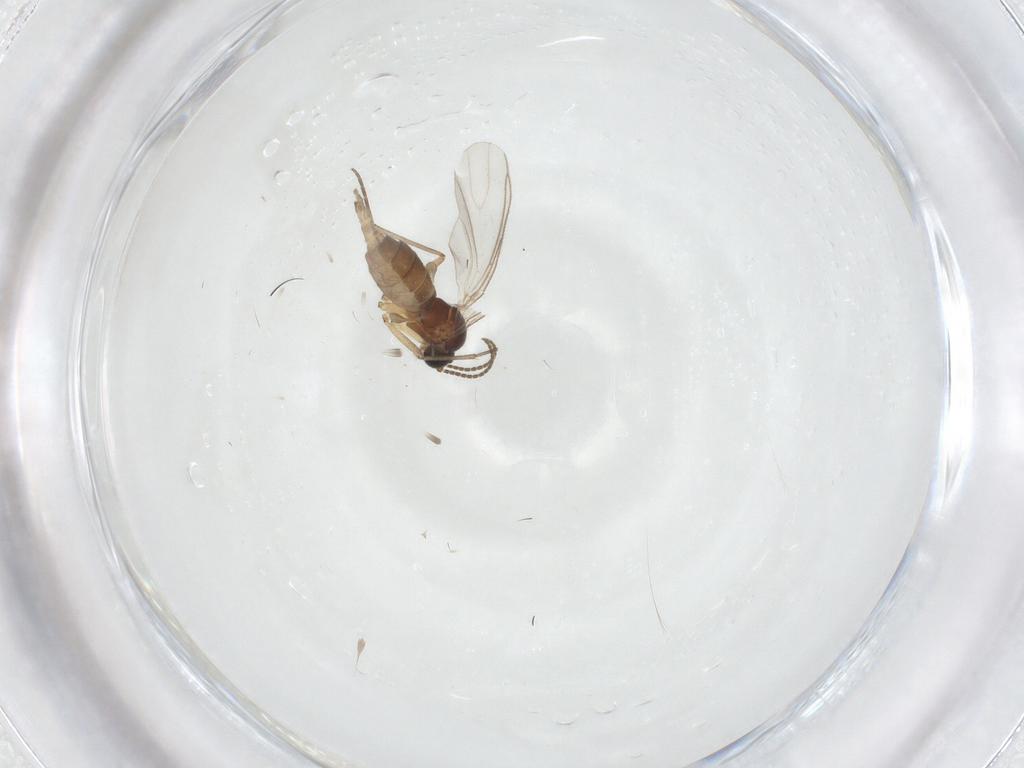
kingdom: Animalia
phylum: Arthropoda
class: Insecta
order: Diptera
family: Sciaridae
